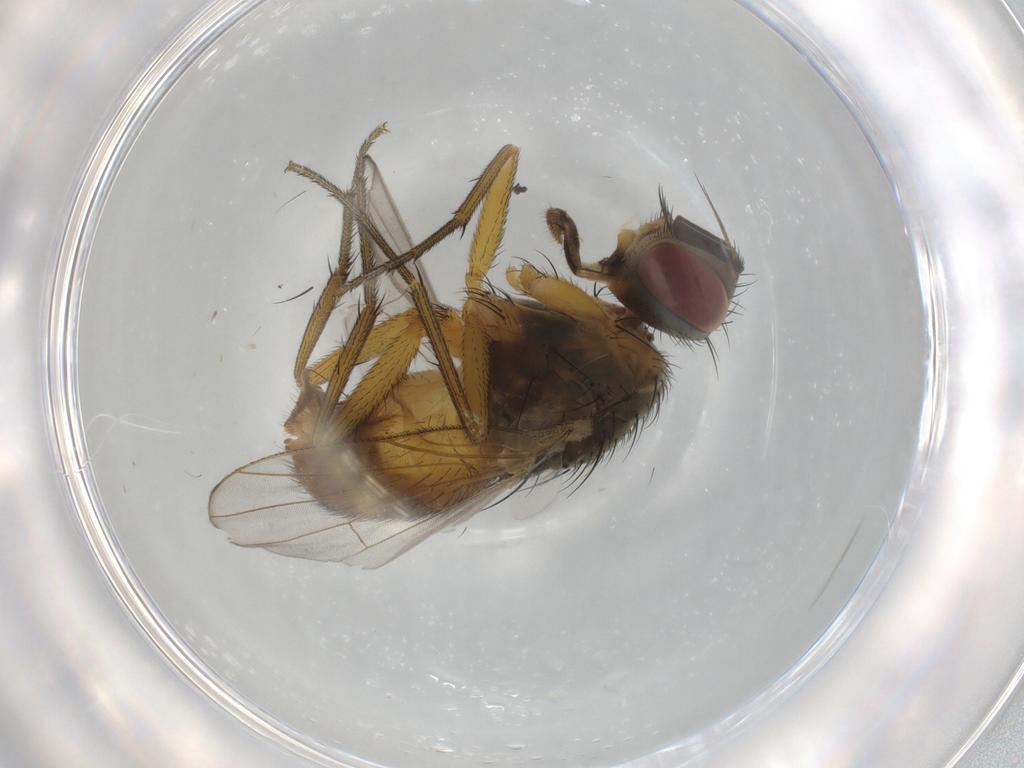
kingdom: Animalia
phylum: Arthropoda
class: Insecta
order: Diptera
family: Muscidae
